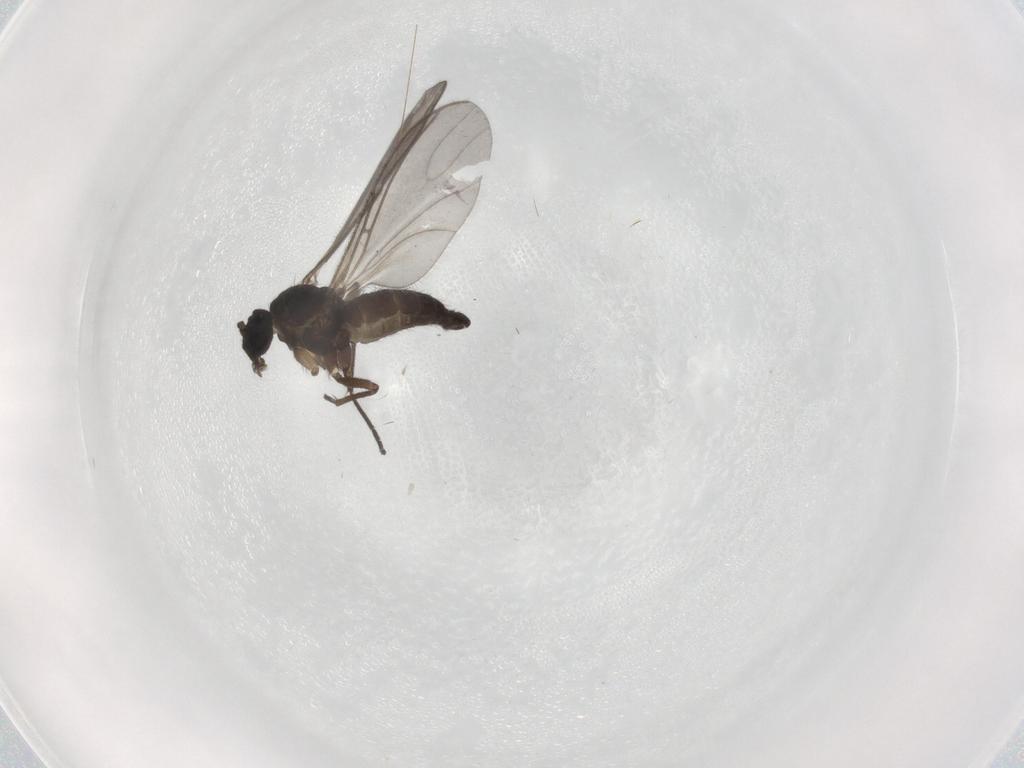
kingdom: Animalia
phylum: Arthropoda
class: Insecta
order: Diptera
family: Sciaridae
